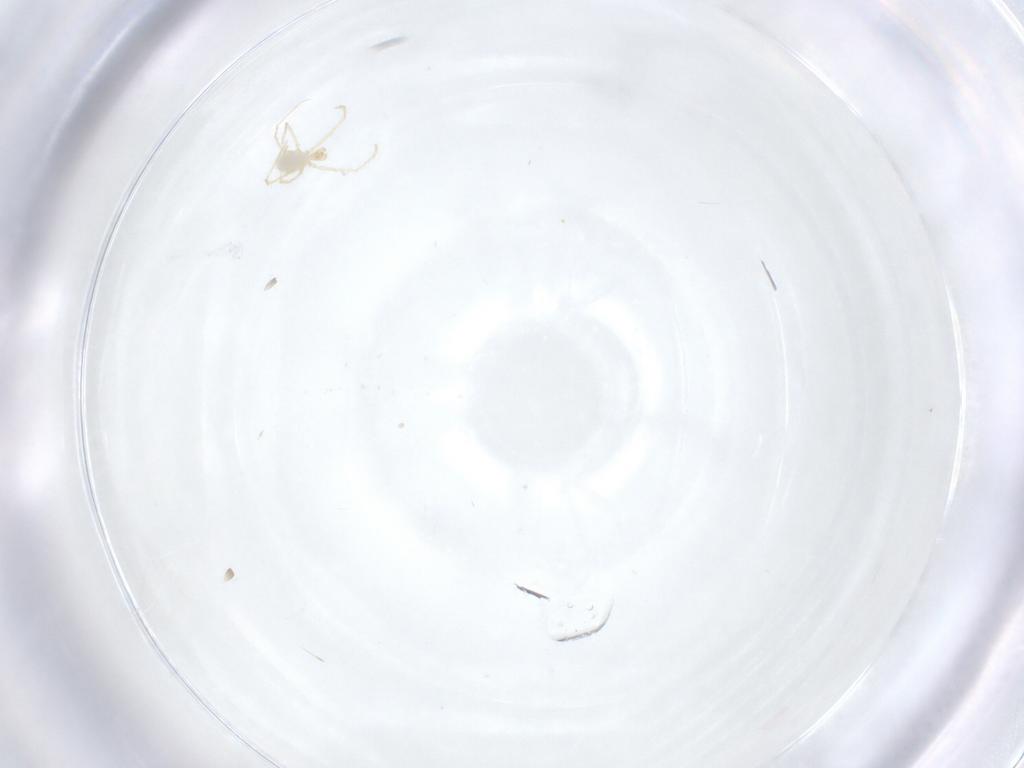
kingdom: Animalia
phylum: Arthropoda
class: Arachnida
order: Trombidiformes
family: Erythraeidae
